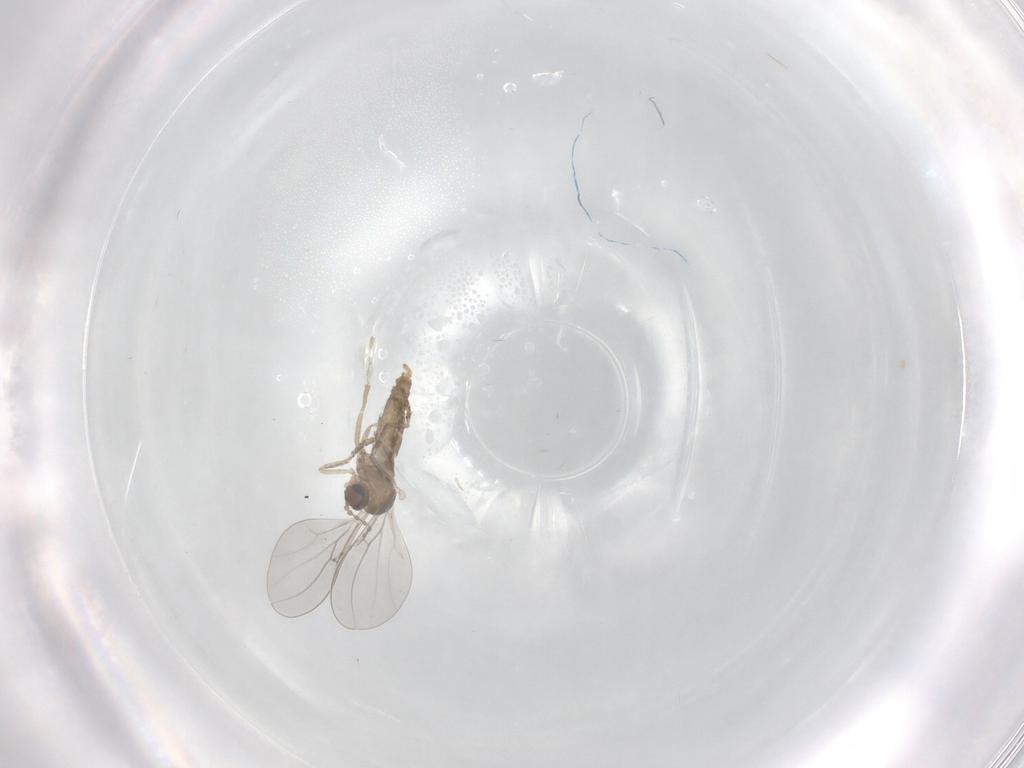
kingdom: Animalia
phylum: Arthropoda
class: Insecta
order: Diptera
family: Cecidomyiidae
